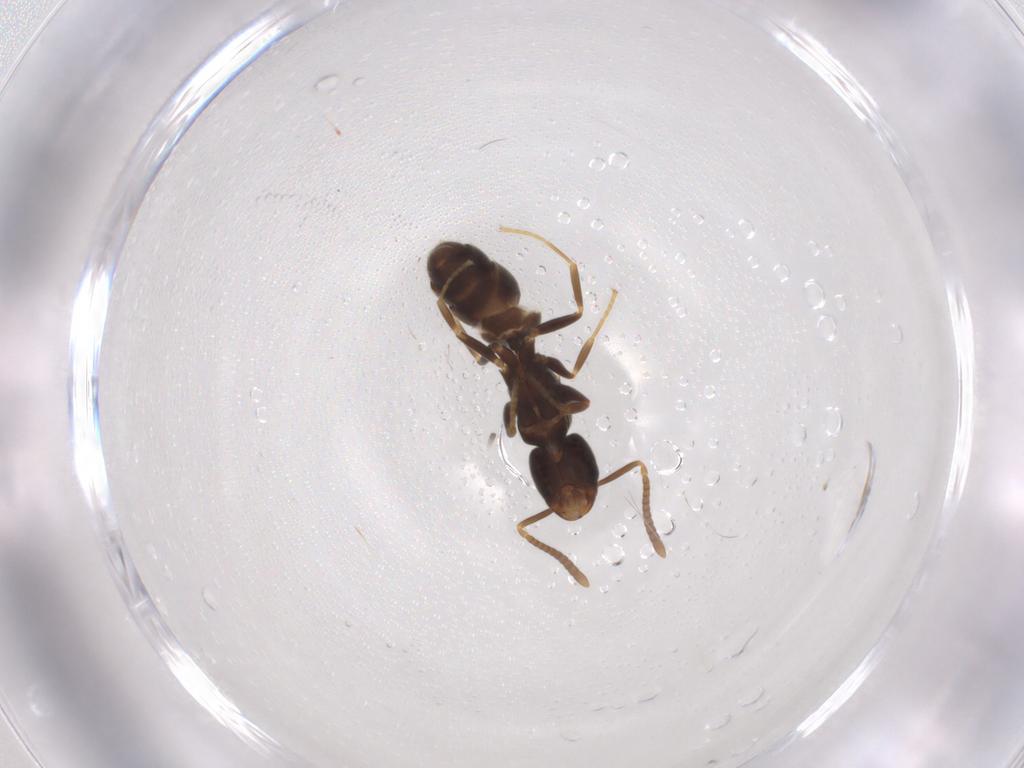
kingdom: Animalia
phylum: Arthropoda
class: Insecta
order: Hymenoptera
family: Formicidae
